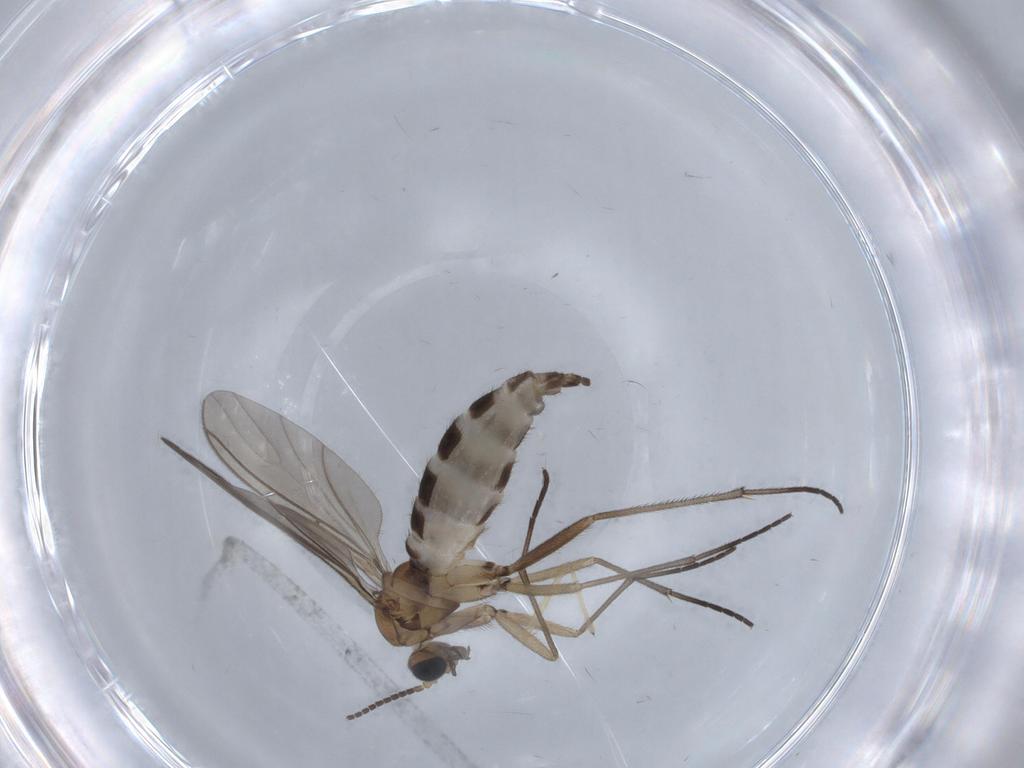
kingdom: Animalia
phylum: Arthropoda
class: Insecta
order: Diptera
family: Sciaridae
